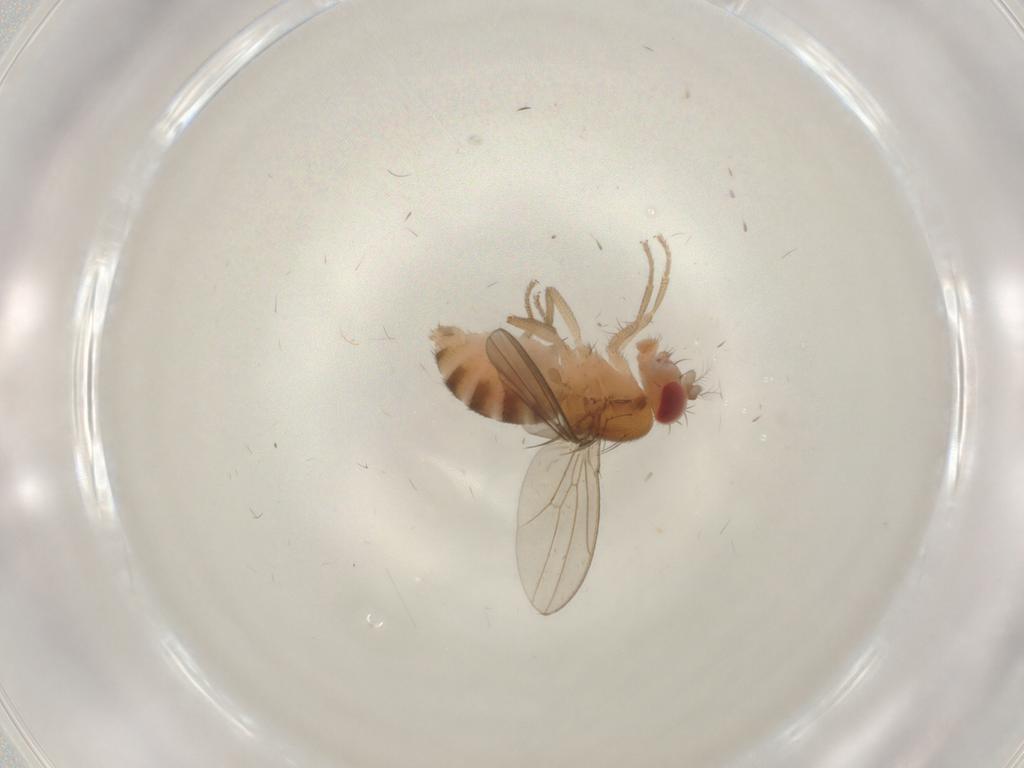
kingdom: Animalia
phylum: Arthropoda
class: Insecta
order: Diptera
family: Drosophilidae
